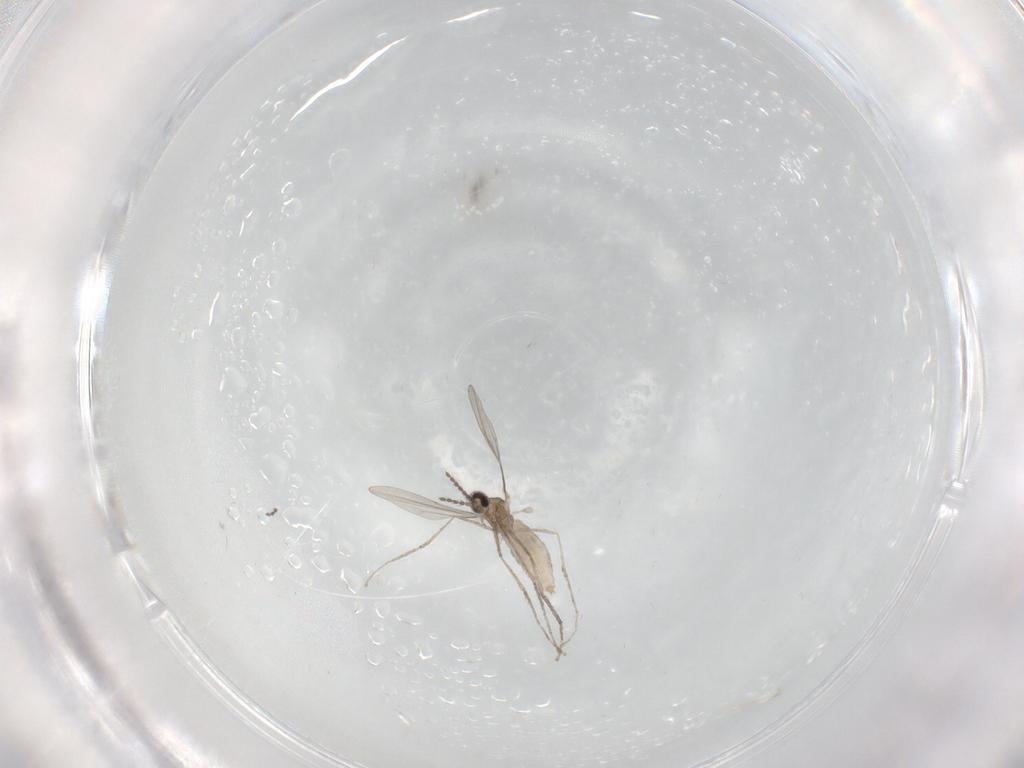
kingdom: Animalia
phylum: Arthropoda
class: Insecta
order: Diptera
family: Cecidomyiidae
